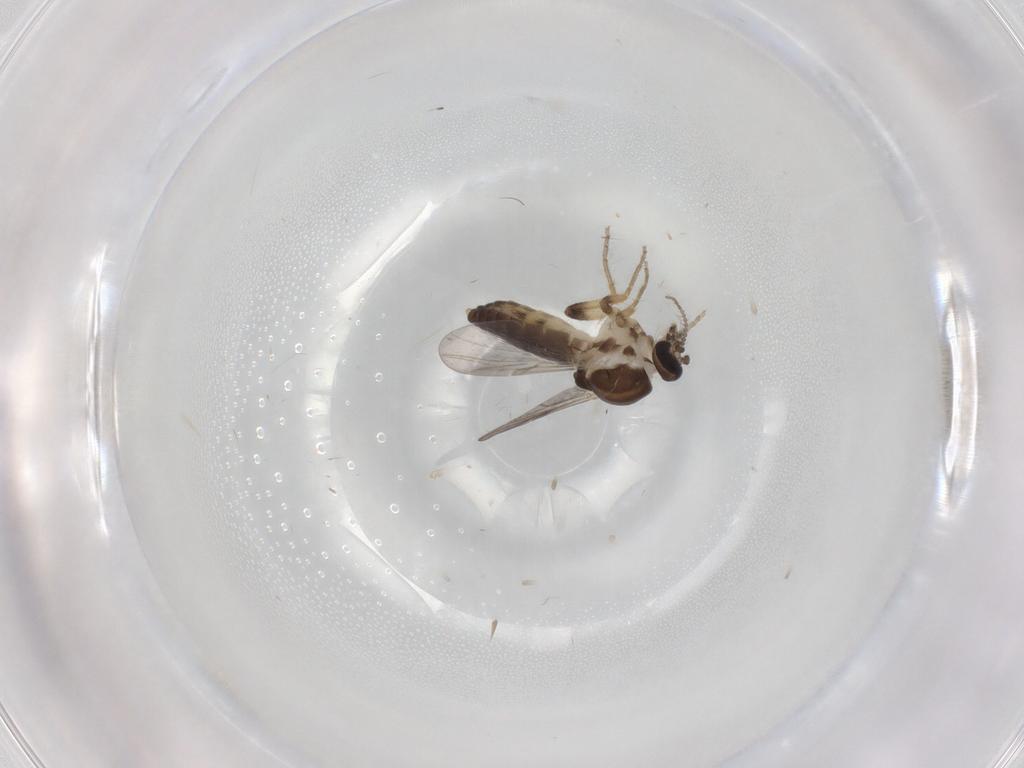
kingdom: Animalia
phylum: Arthropoda
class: Insecta
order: Diptera
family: Ceratopogonidae
